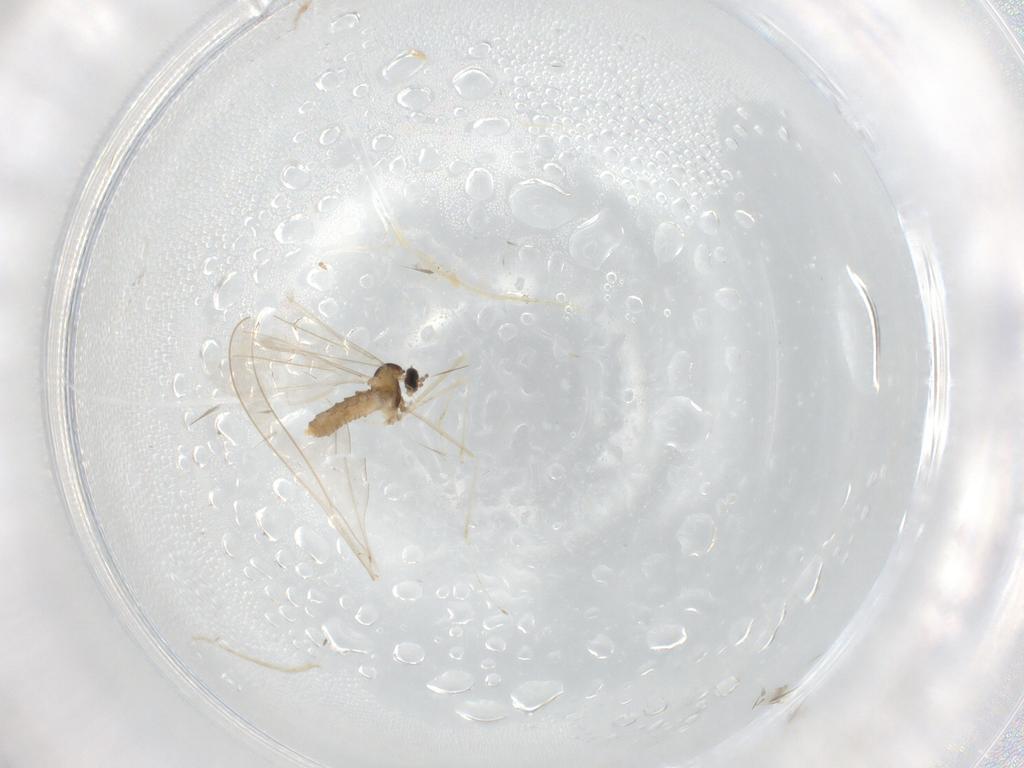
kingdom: Animalia
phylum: Arthropoda
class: Insecta
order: Diptera
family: Cecidomyiidae
